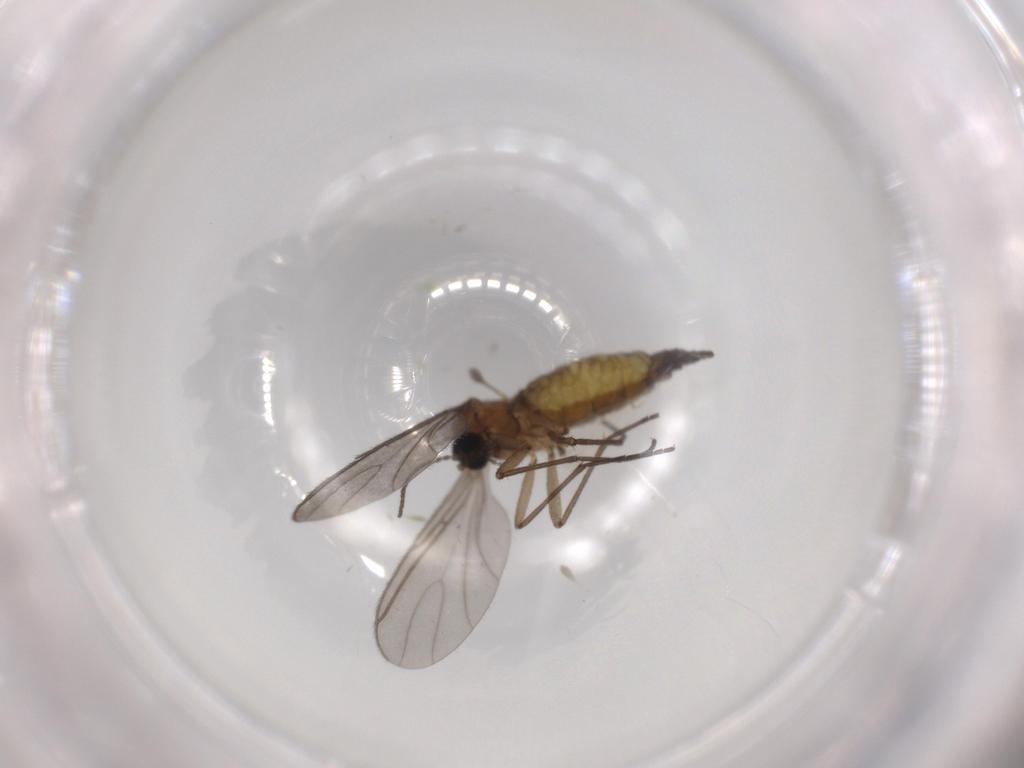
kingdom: Animalia
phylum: Arthropoda
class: Insecta
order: Diptera
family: Sciaridae
